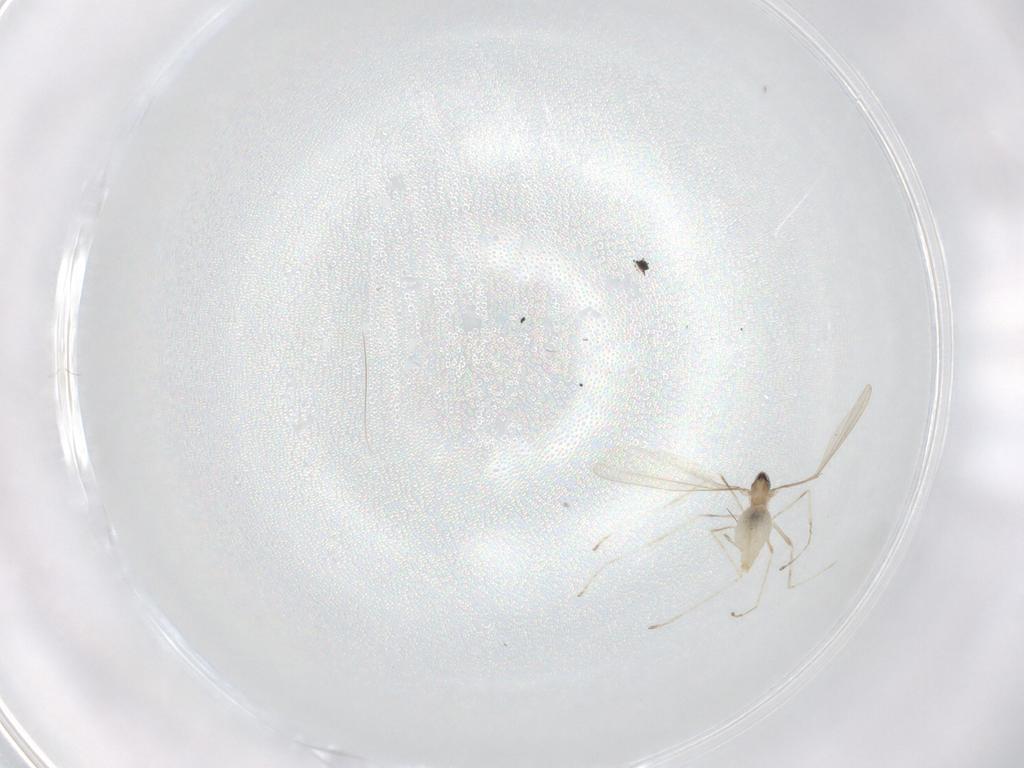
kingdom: Animalia
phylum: Arthropoda
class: Insecta
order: Diptera
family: Cecidomyiidae
